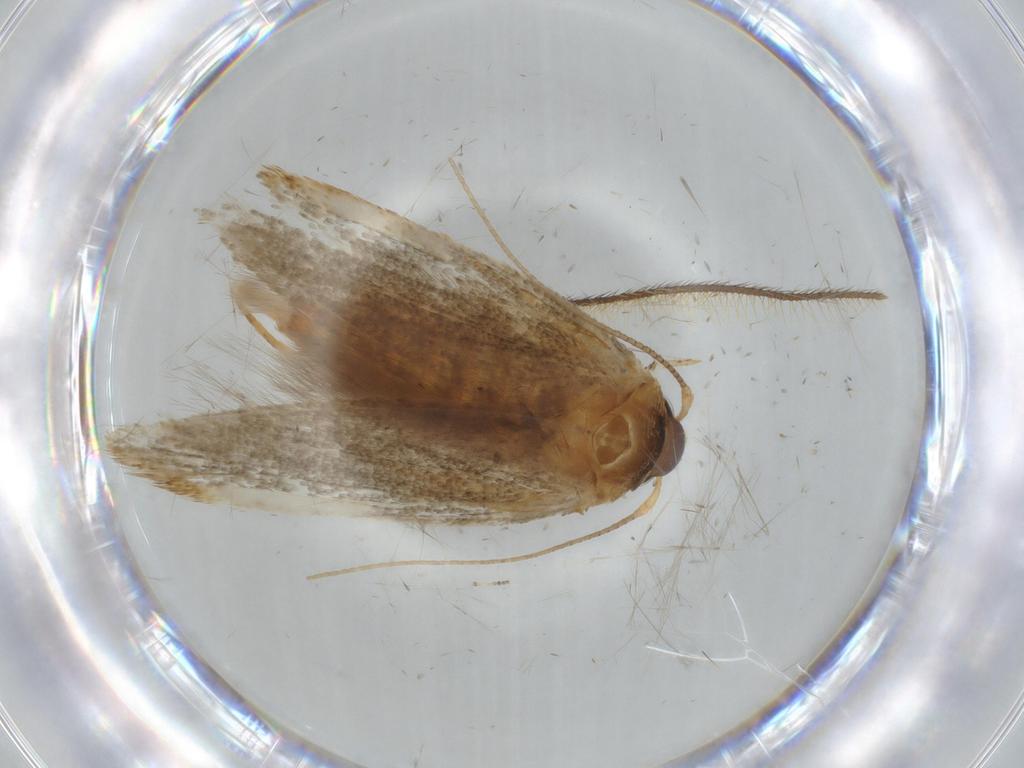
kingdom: Animalia
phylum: Arthropoda
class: Insecta
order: Lepidoptera
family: Tineidae
